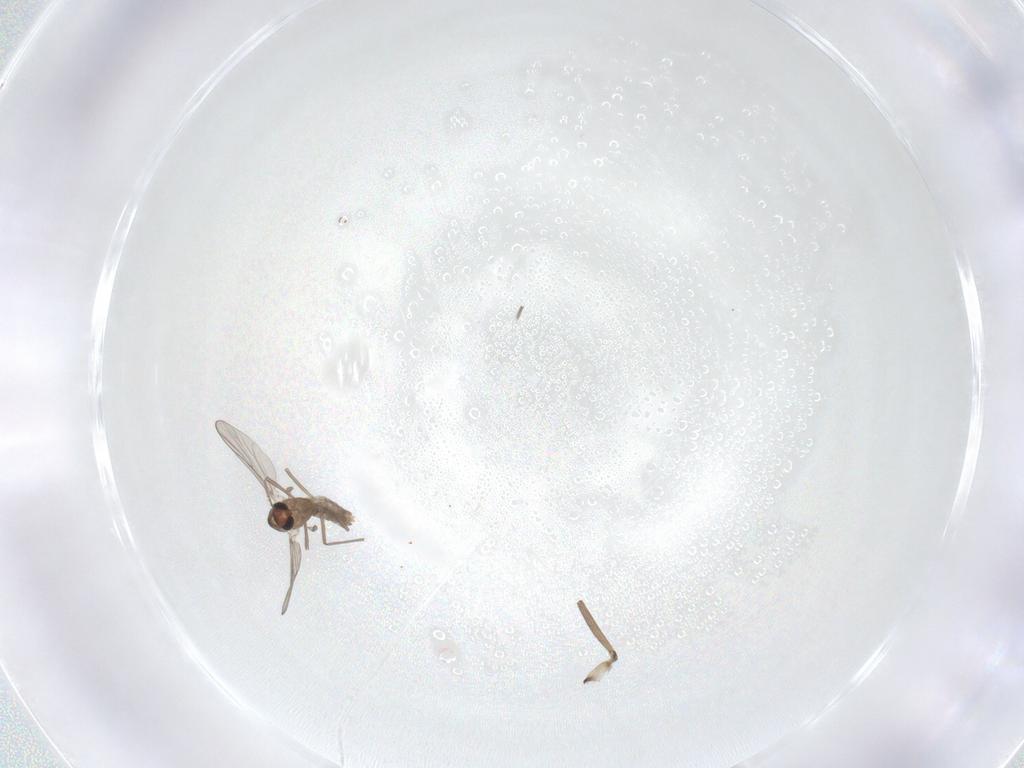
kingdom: Animalia
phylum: Arthropoda
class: Insecta
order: Diptera
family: Chironomidae
